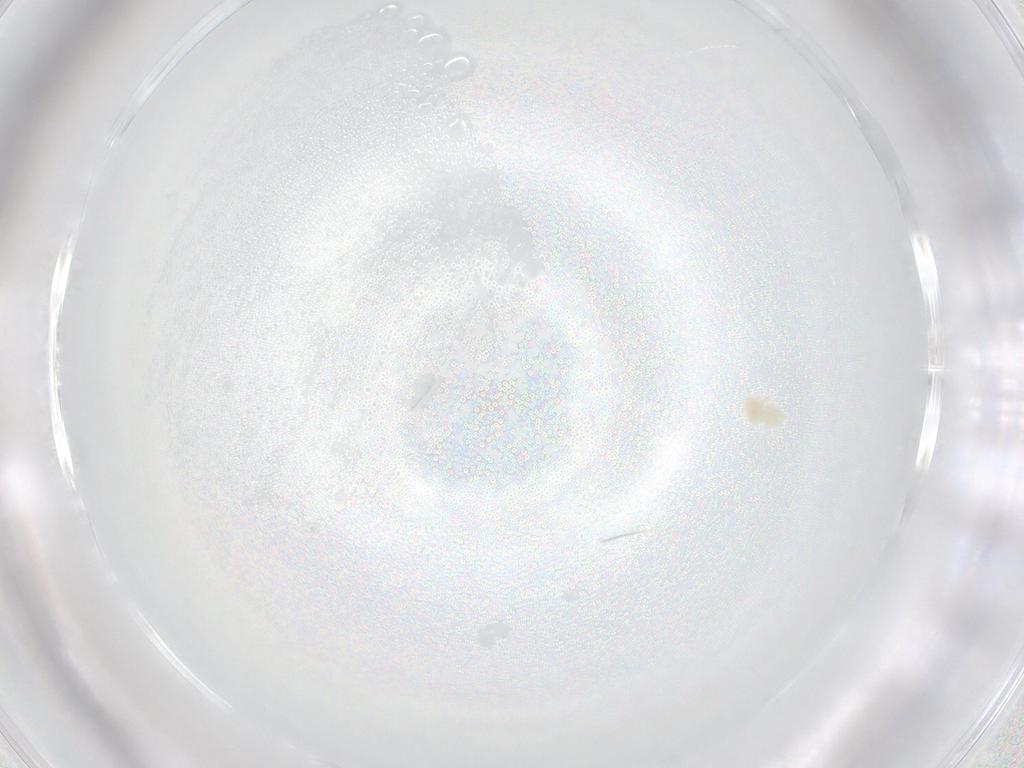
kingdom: Animalia
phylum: Arthropoda
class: Arachnida
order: Trombidiformes
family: Eupodidae
